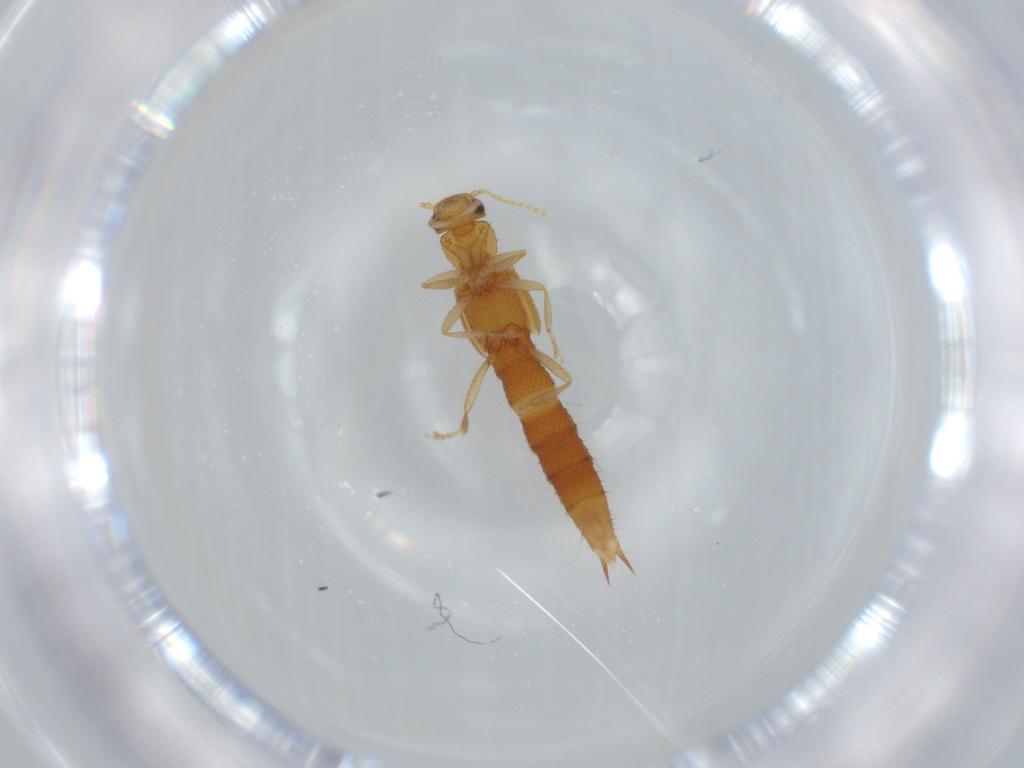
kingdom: Animalia
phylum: Arthropoda
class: Insecta
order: Coleoptera
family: Staphylinidae
